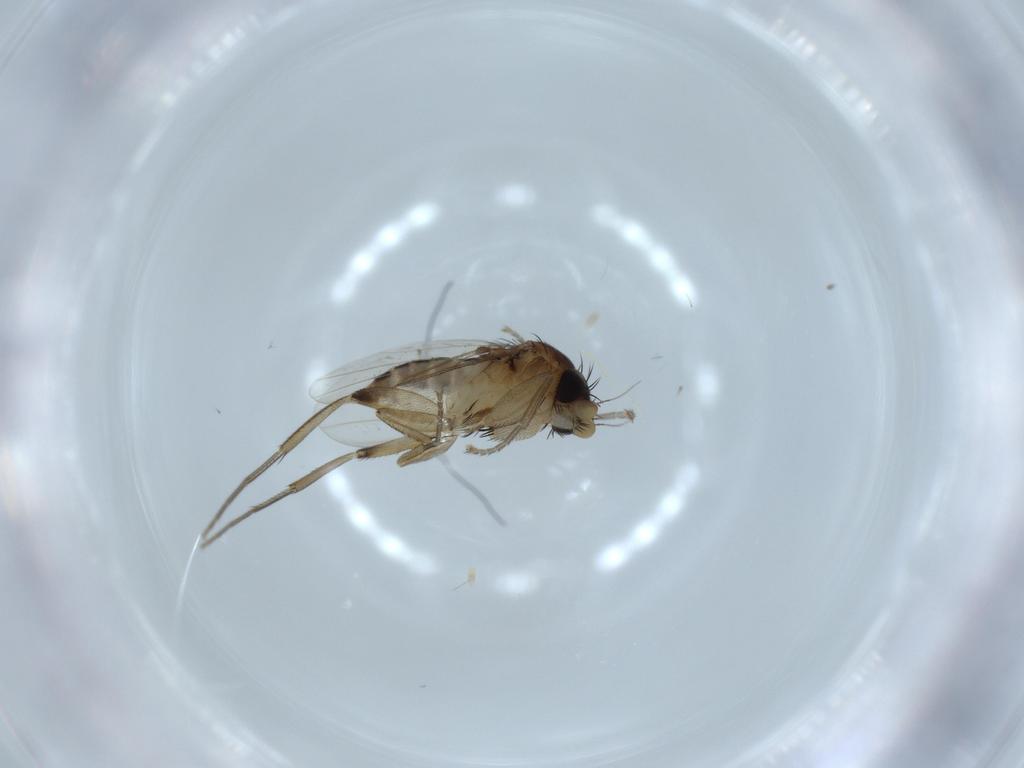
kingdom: Animalia
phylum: Arthropoda
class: Insecta
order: Diptera
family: Phoridae
